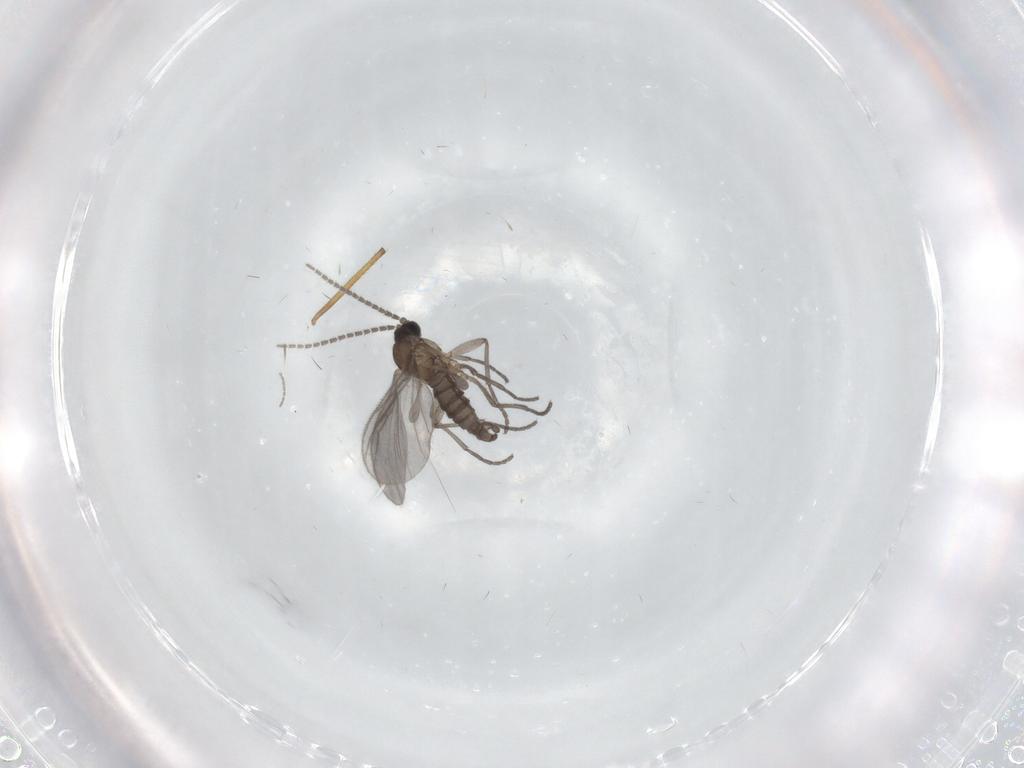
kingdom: Animalia
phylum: Arthropoda
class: Insecta
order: Diptera
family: Sciaridae
